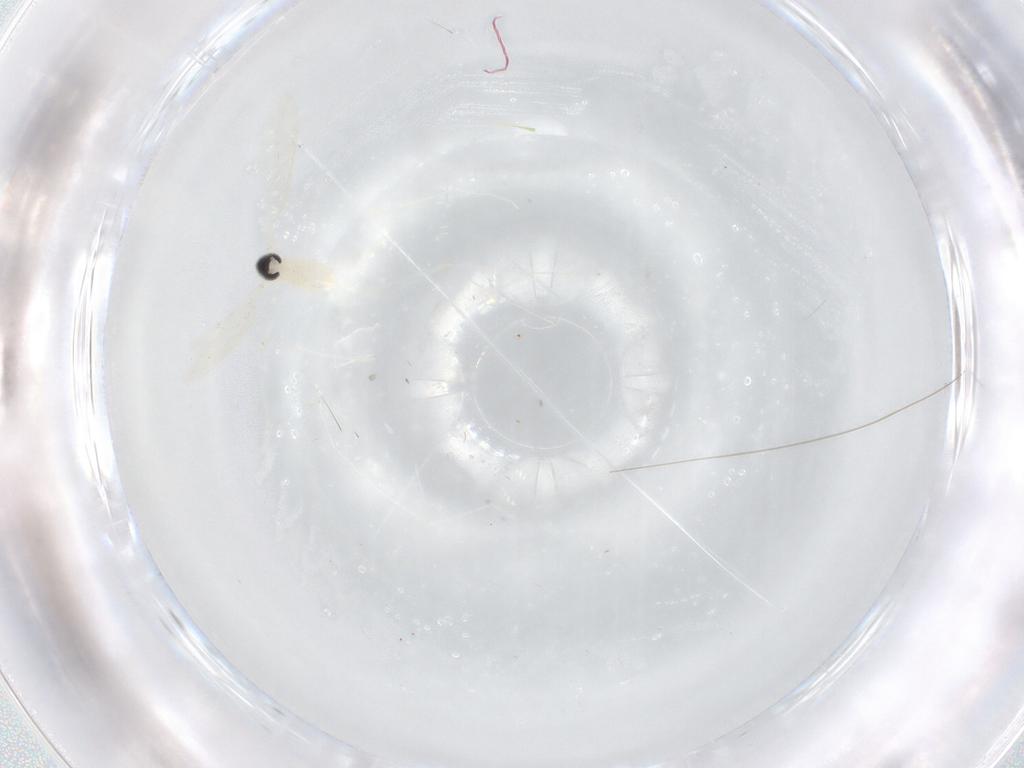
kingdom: Animalia
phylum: Arthropoda
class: Insecta
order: Diptera
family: Cecidomyiidae
